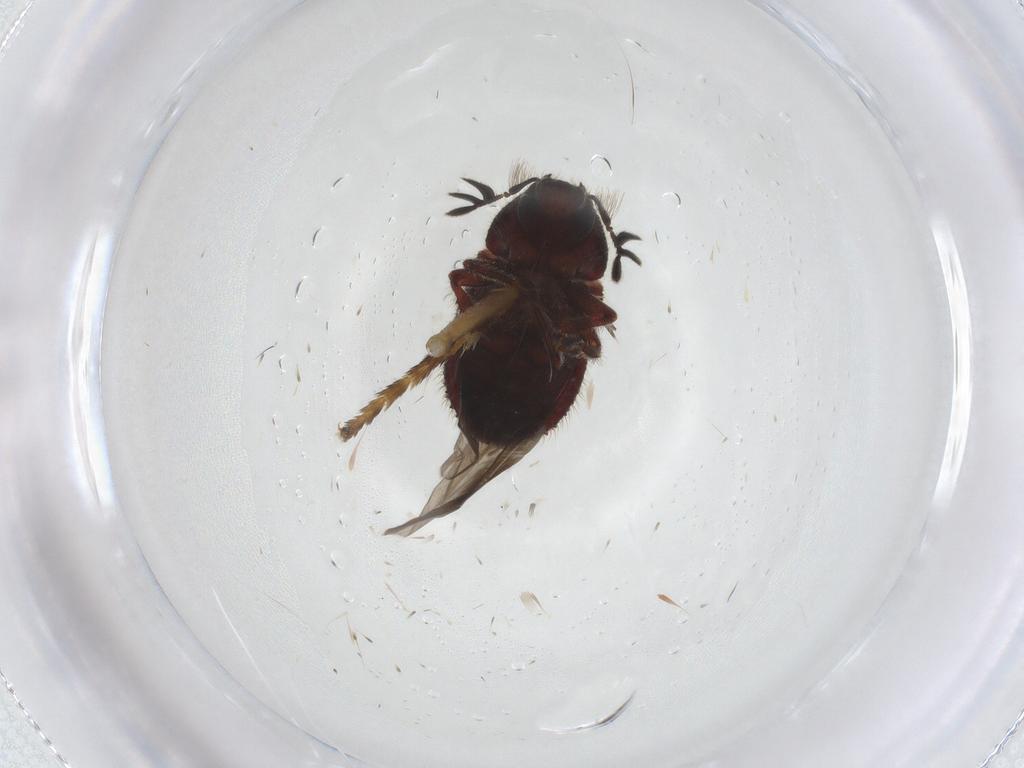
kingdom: Animalia
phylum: Arthropoda
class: Insecta
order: Coleoptera
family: Curculionidae
